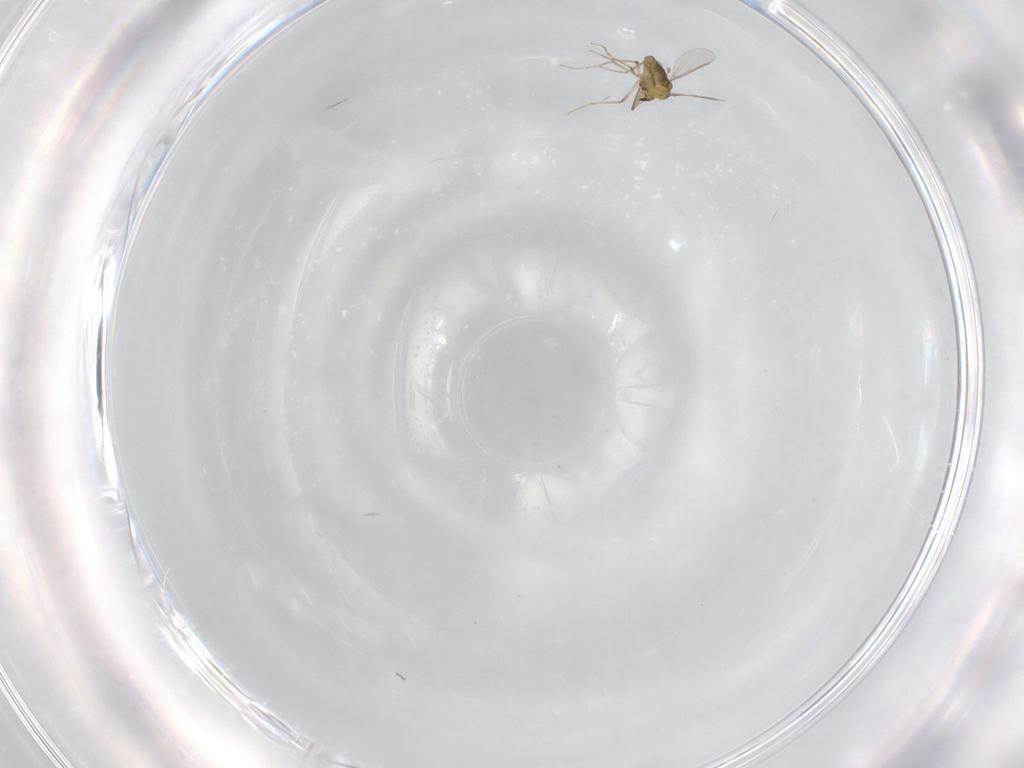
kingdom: Animalia
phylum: Arthropoda
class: Insecta
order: Diptera
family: Chironomidae
